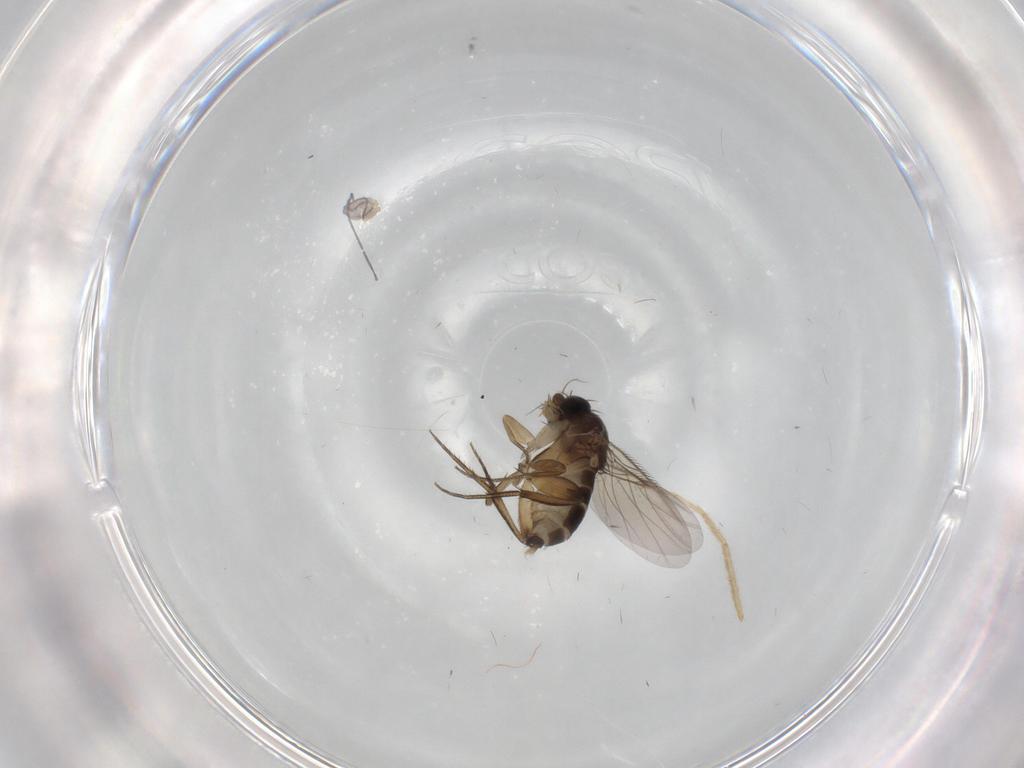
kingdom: Animalia
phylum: Arthropoda
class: Insecta
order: Diptera
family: Phoridae
